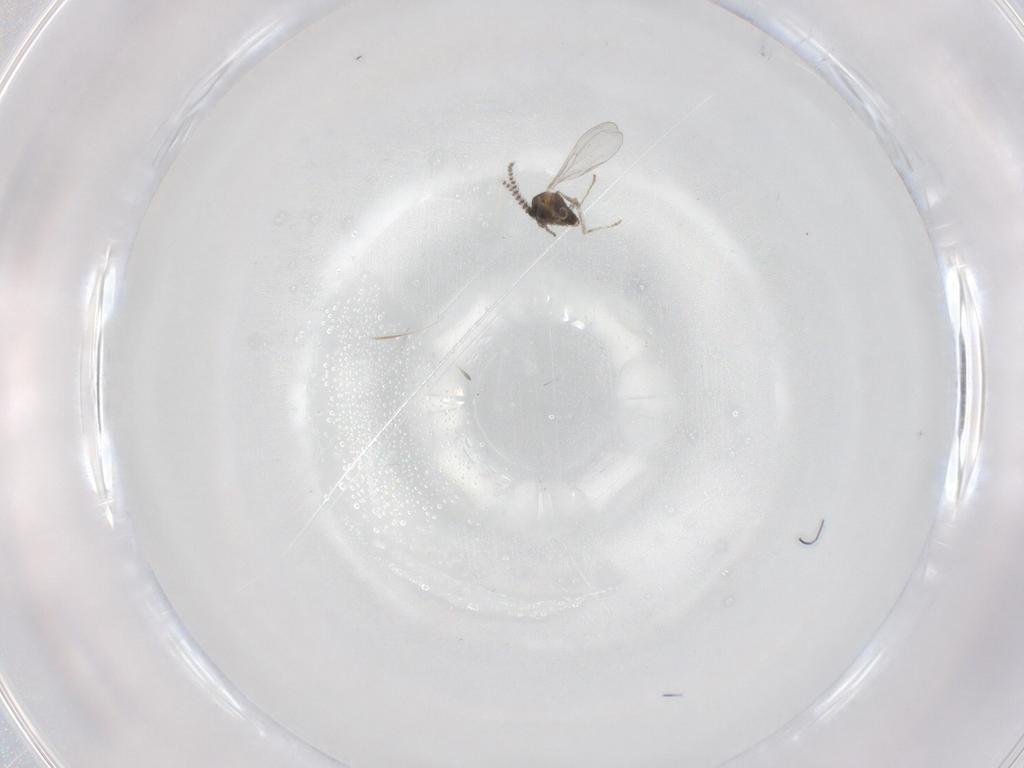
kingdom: Animalia
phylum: Arthropoda
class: Insecta
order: Diptera
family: Cecidomyiidae
